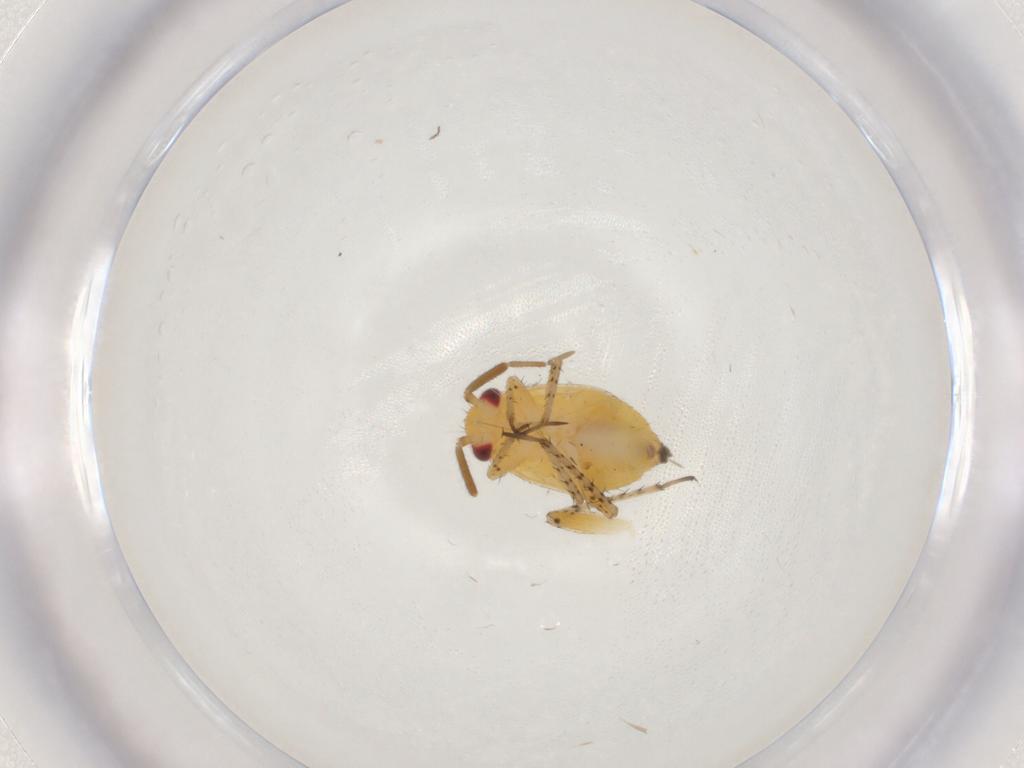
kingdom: Animalia
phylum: Arthropoda
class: Insecta
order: Hemiptera
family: Miridae
